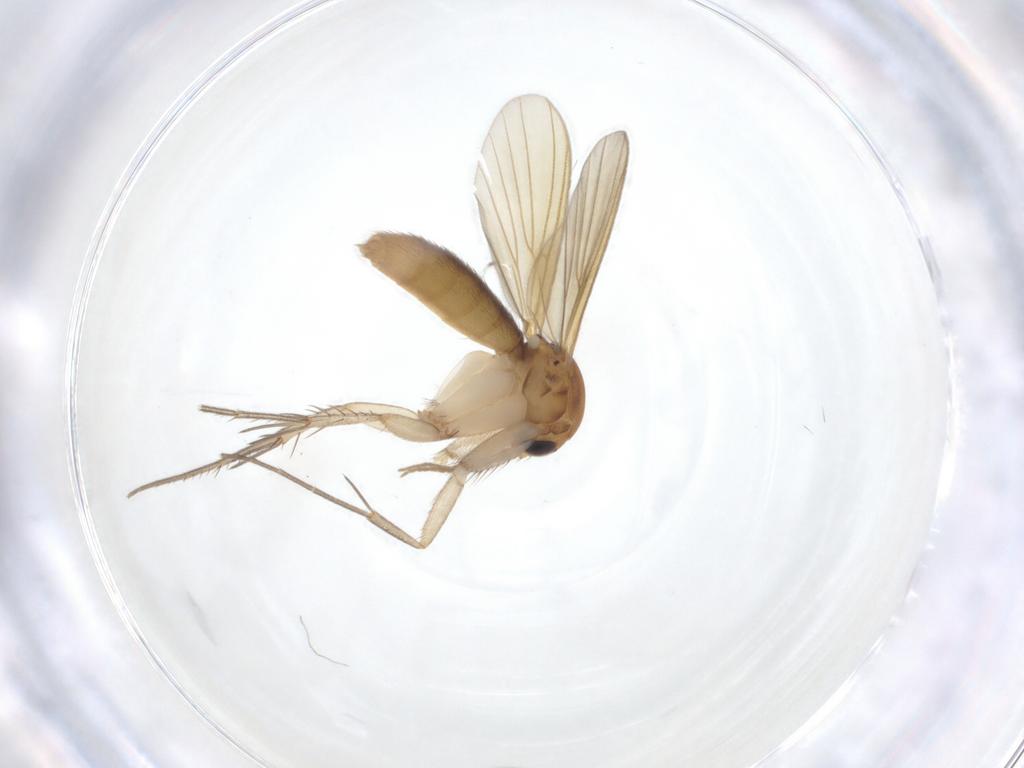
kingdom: Animalia
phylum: Arthropoda
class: Insecta
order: Diptera
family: Mycetophilidae
